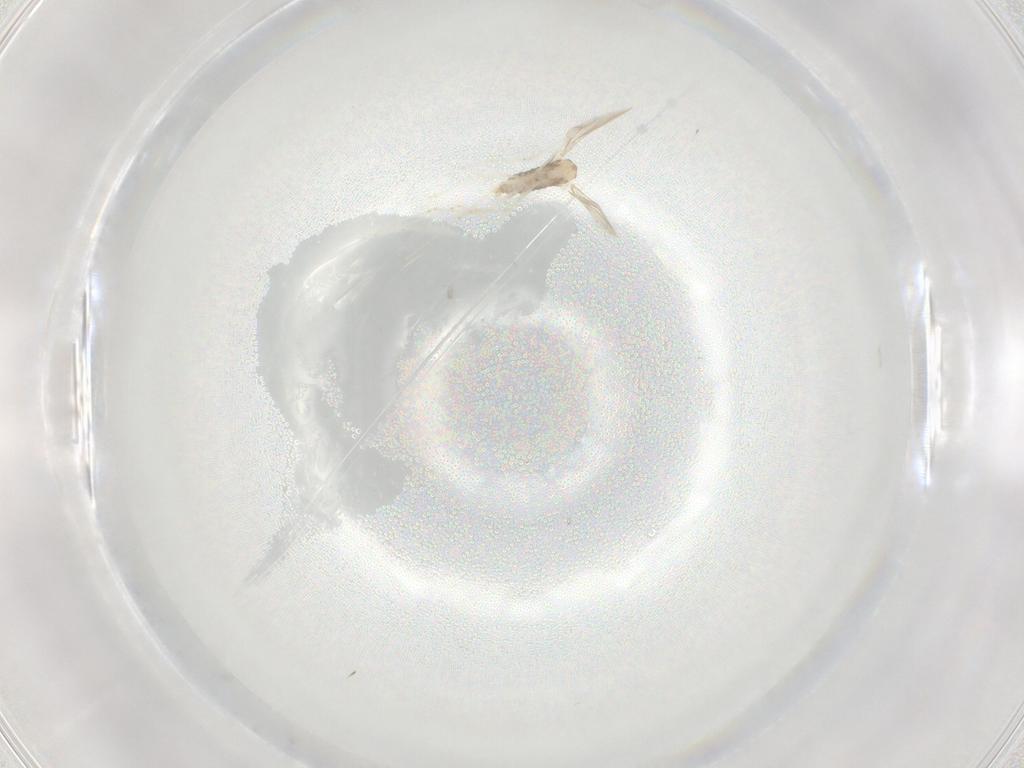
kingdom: Animalia
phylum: Arthropoda
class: Insecta
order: Diptera
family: Cecidomyiidae
